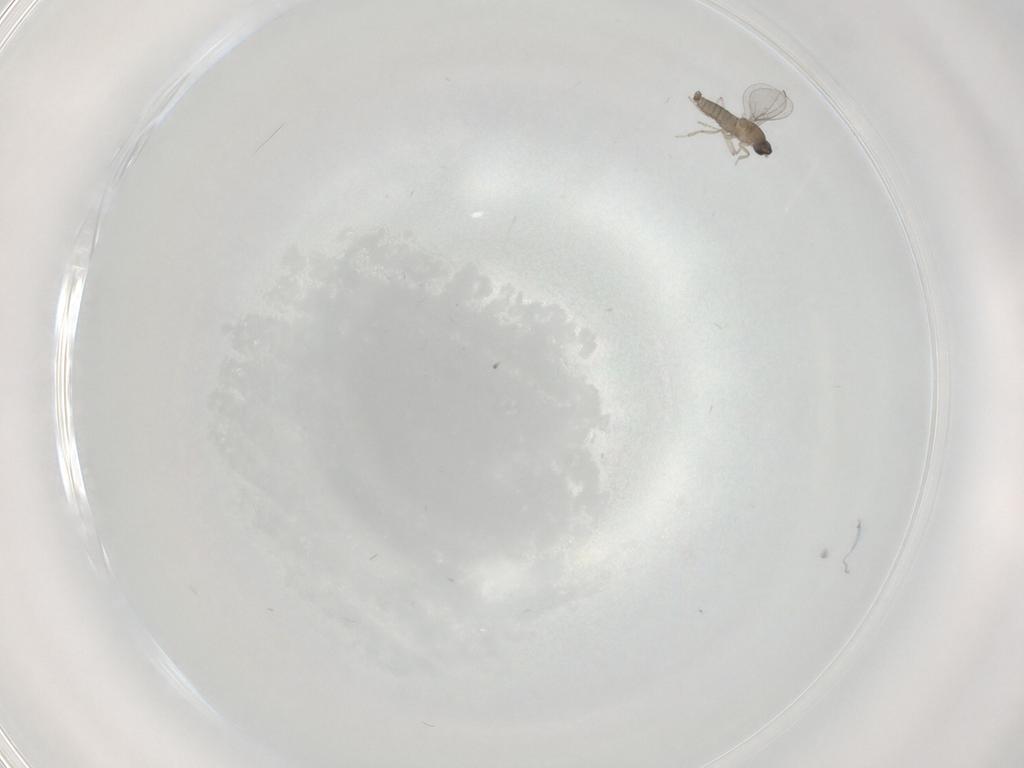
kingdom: Animalia
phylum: Arthropoda
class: Insecta
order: Diptera
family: Cecidomyiidae
